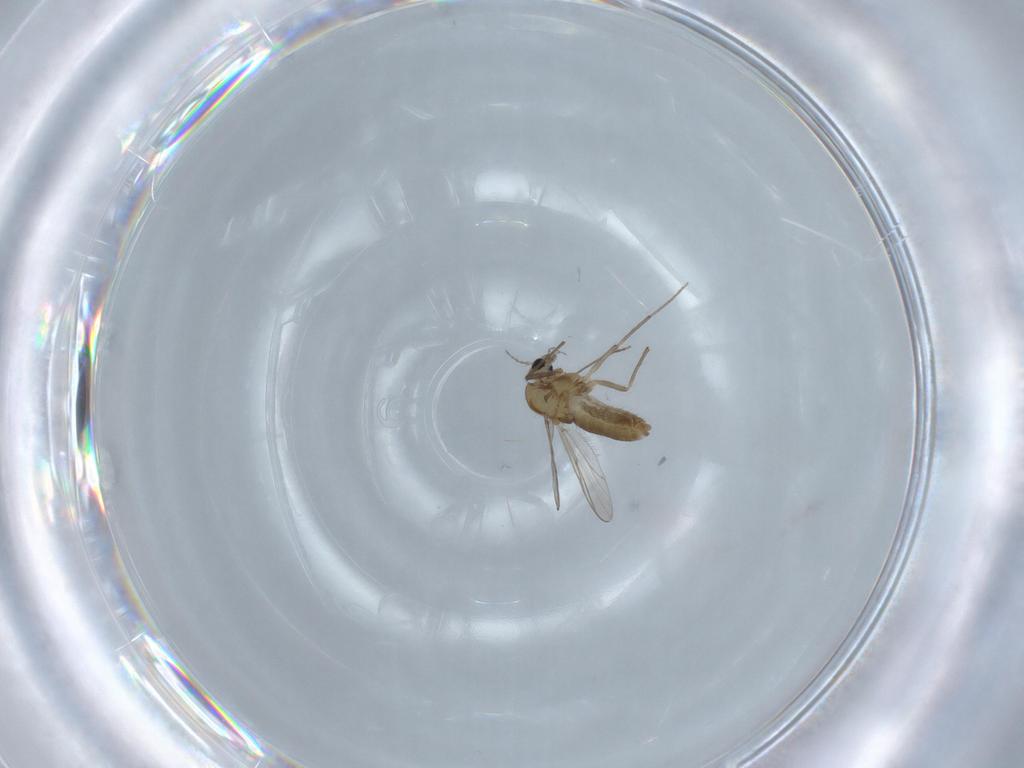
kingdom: Animalia
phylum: Arthropoda
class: Insecta
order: Diptera
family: Chironomidae
